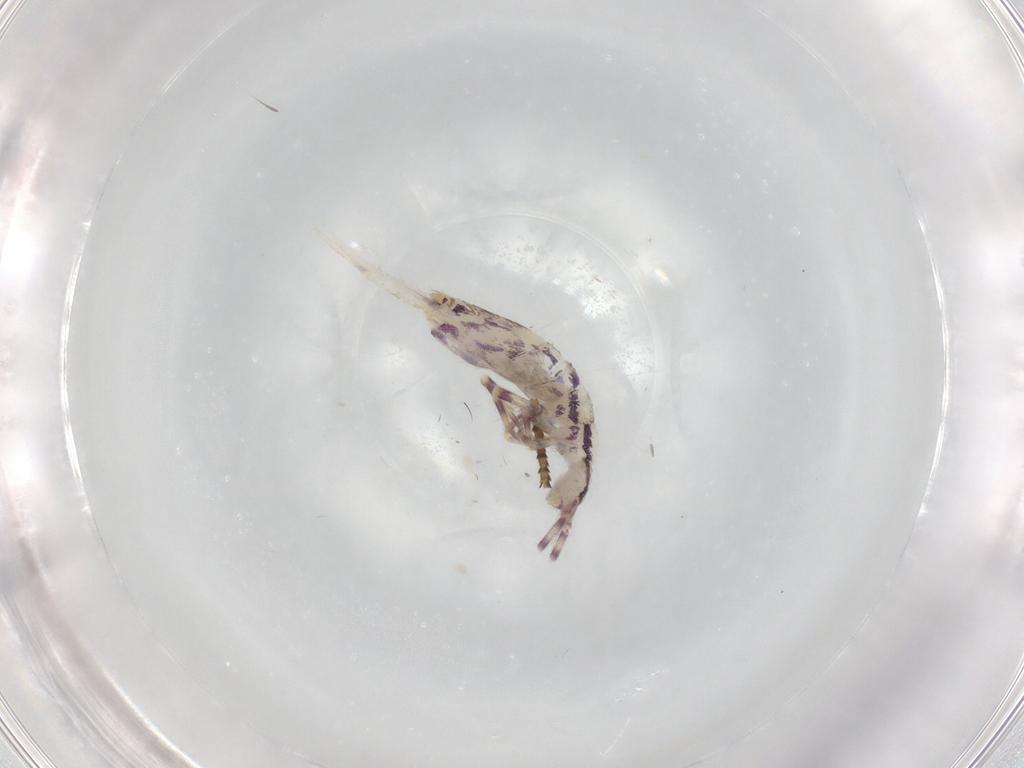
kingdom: Animalia
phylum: Arthropoda
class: Collembola
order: Entomobryomorpha
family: Entomobryidae
